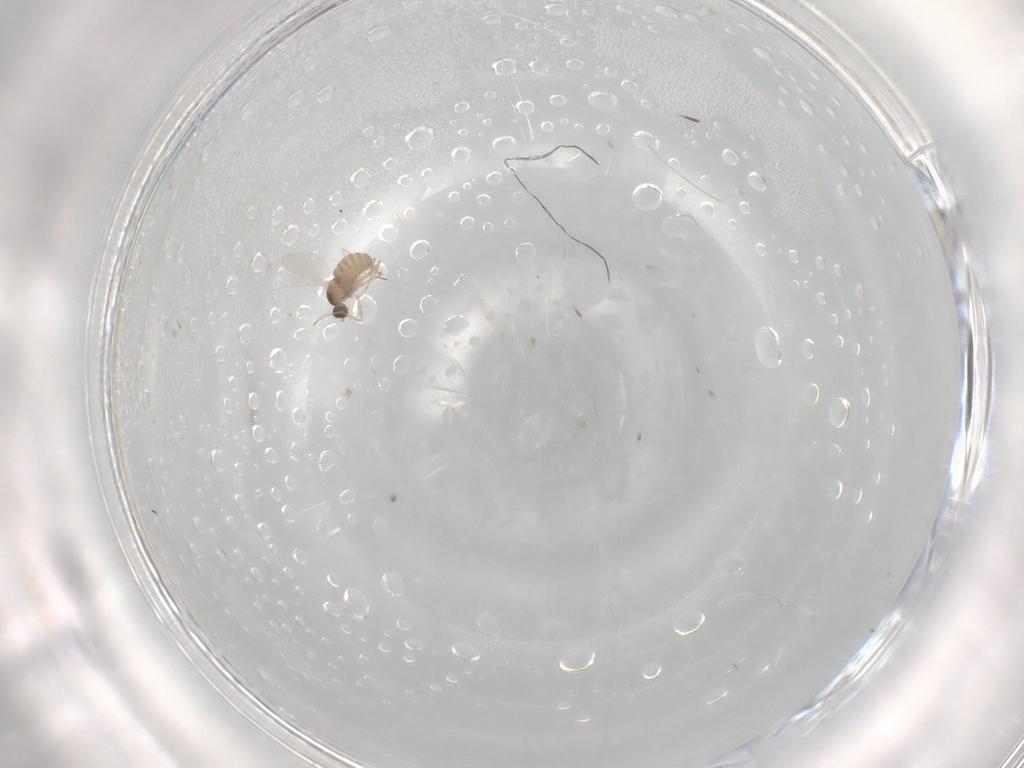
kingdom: Animalia
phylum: Arthropoda
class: Insecta
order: Diptera
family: Cecidomyiidae
